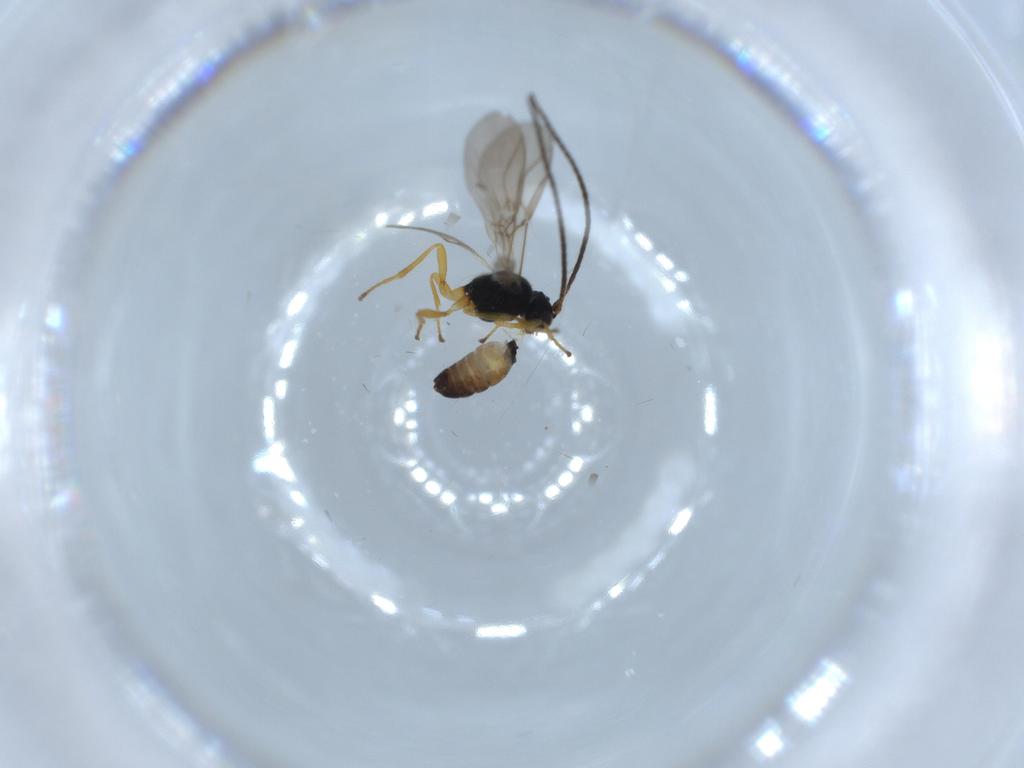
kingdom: Animalia
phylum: Arthropoda
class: Insecta
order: Hymenoptera
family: Braconidae
